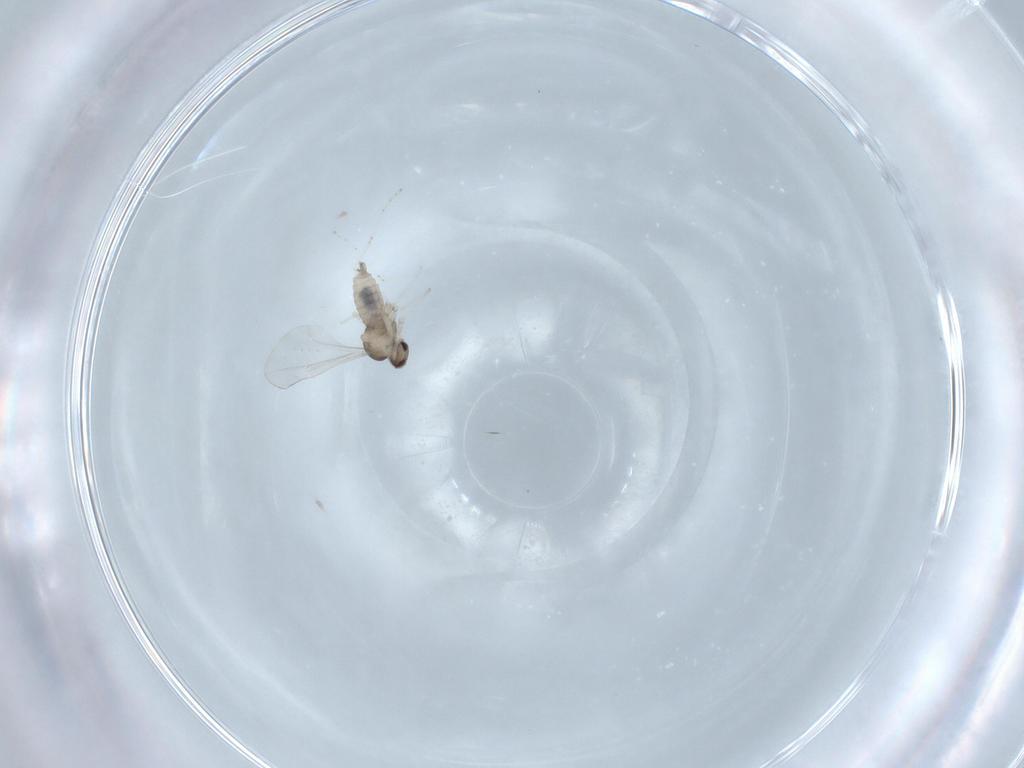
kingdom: Animalia
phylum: Arthropoda
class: Insecta
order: Diptera
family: Cecidomyiidae
